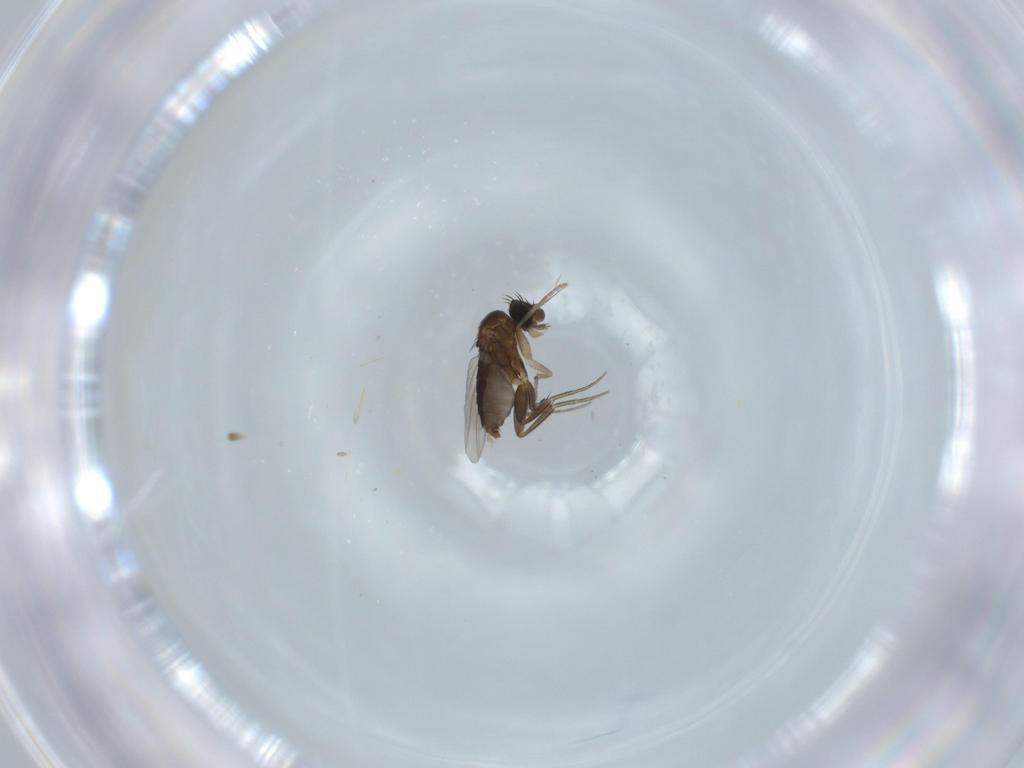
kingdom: Animalia
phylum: Arthropoda
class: Insecta
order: Diptera
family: Phoridae
